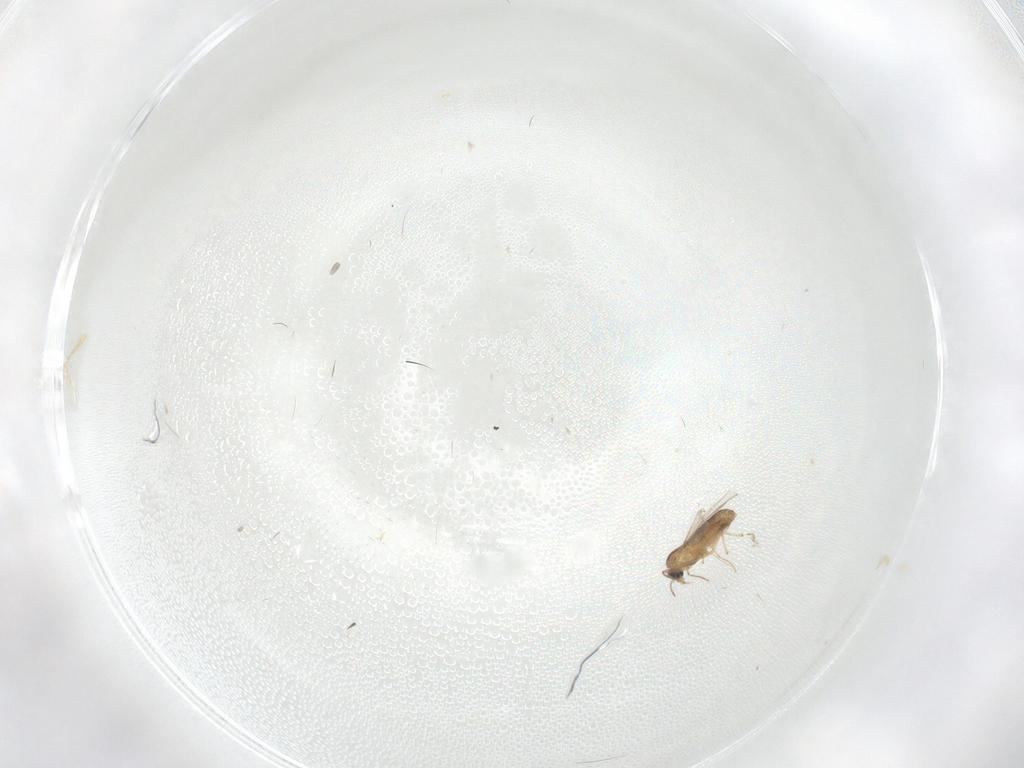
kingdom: Animalia
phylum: Arthropoda
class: Insecta
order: Diptera
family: Chironomidae
